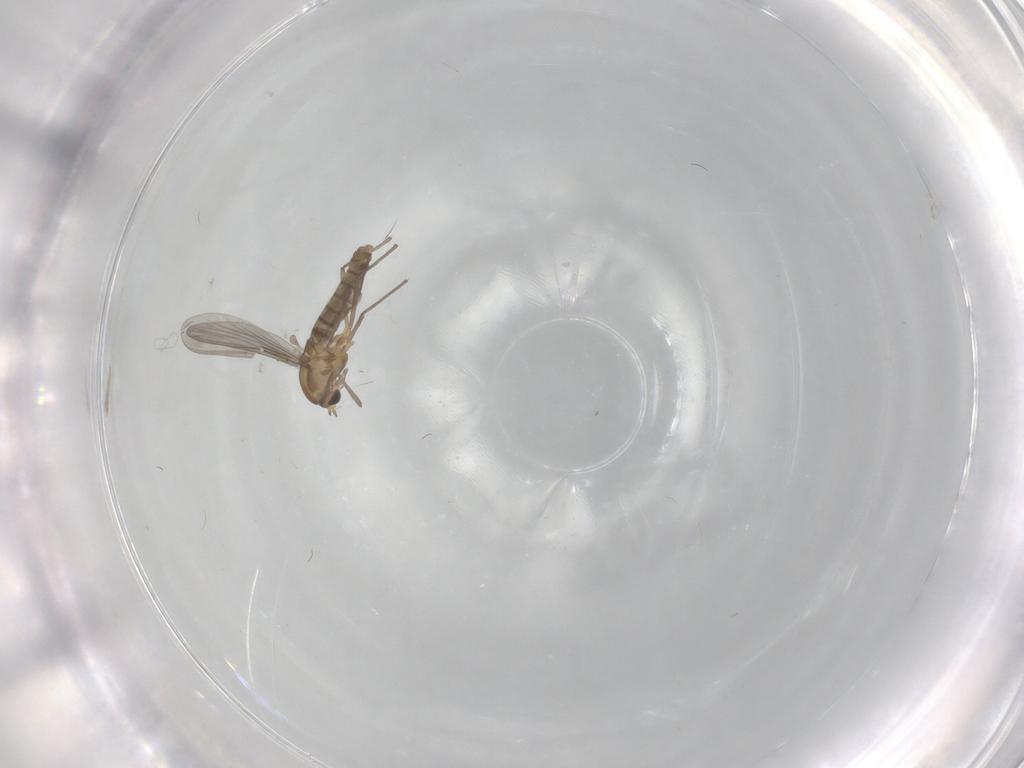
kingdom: Animalia
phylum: Arthropoda
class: Insecta
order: Diptera
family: Chironomidae
